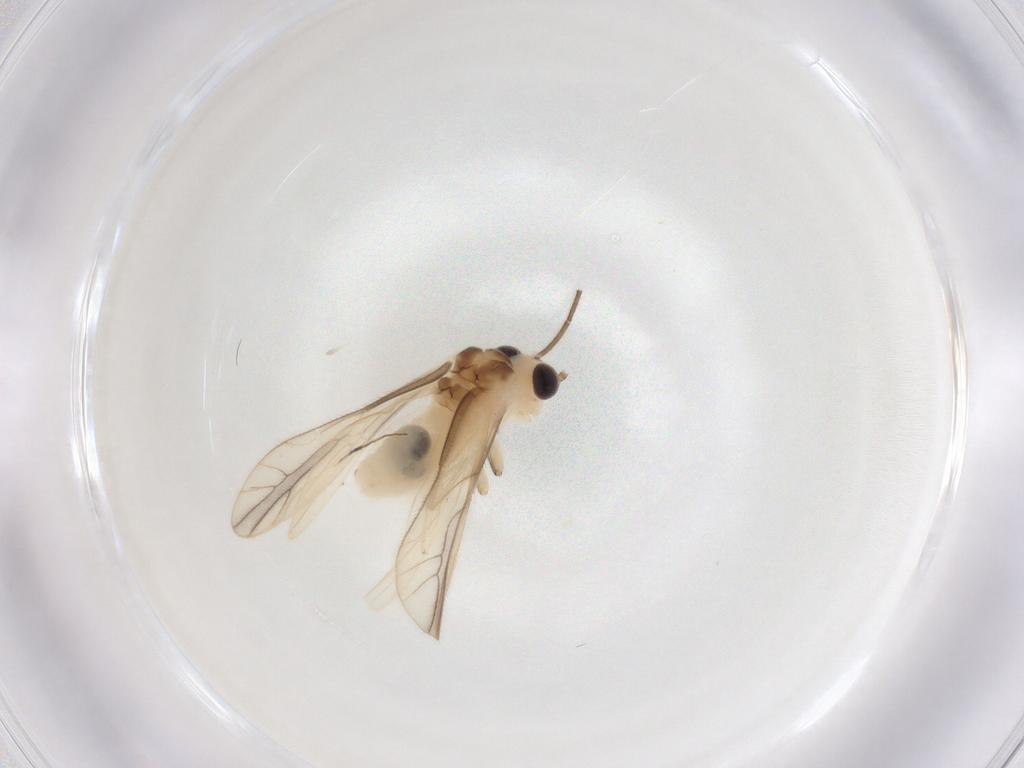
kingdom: Animalia
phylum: Arthropoda
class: Insecta
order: Psocodea
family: Caeciliusidae
